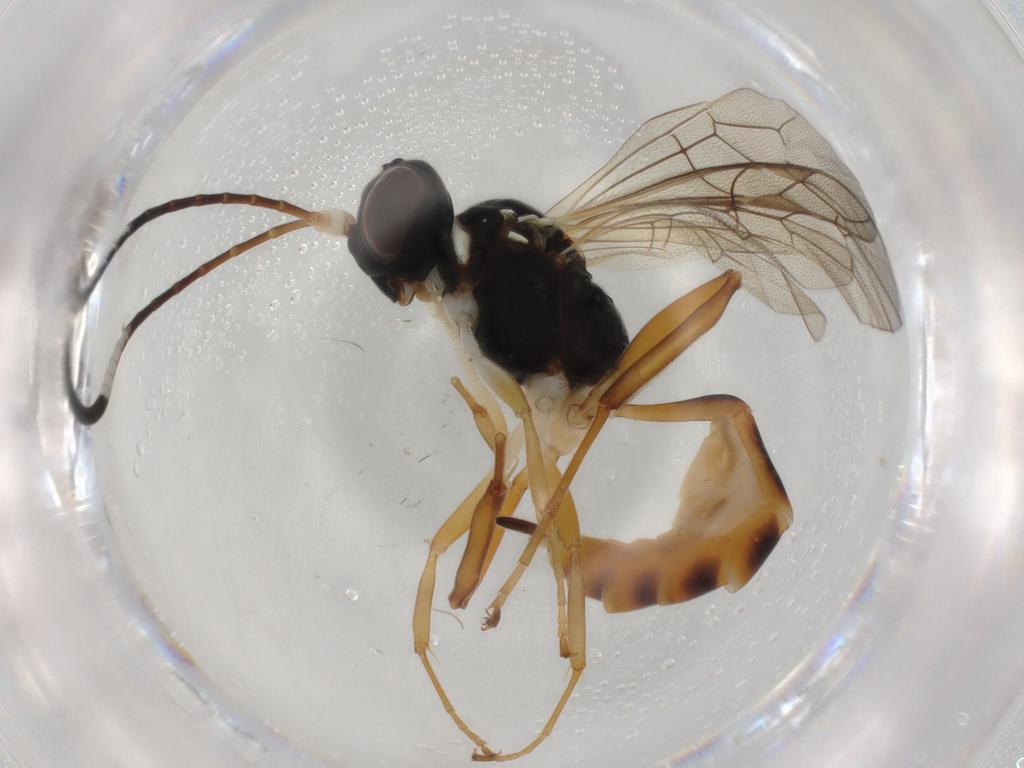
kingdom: Animalia
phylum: Arthropoda
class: Insecta
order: Hymenoptera
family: Ichneumonidae
